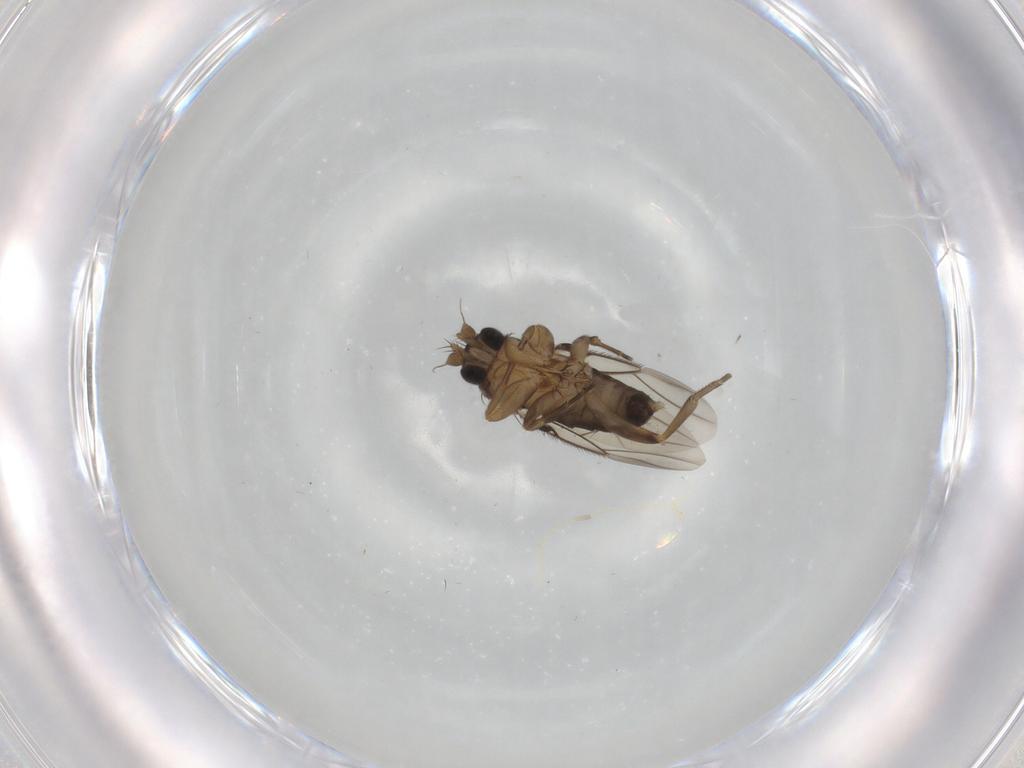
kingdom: Animalia
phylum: Arthropoda
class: Insecta
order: Diptera
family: Phoridae
